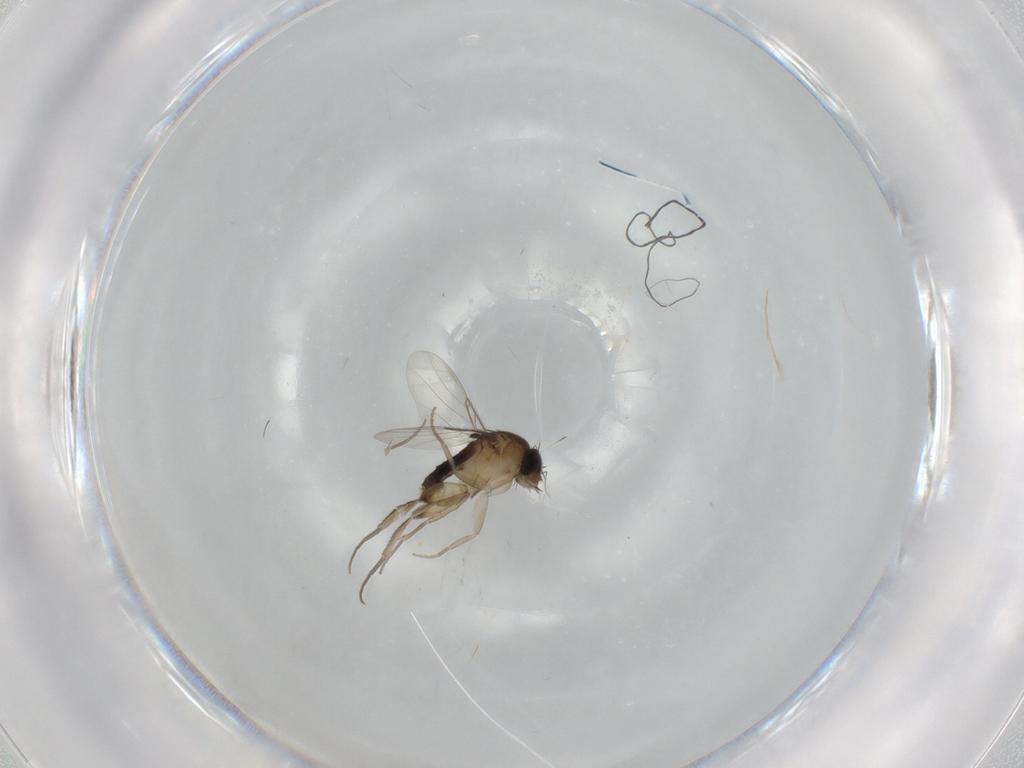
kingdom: Animalia
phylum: Arthropoda
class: Insecta
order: Diptera
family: Phoridae
